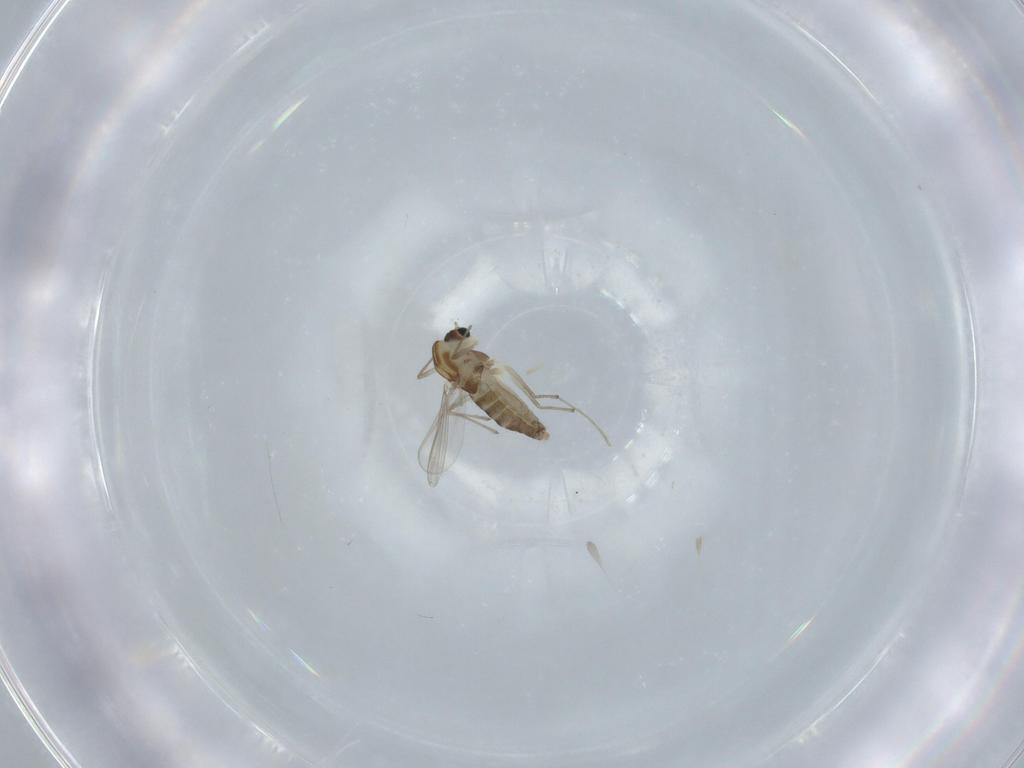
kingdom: Animalia
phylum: Arthropoda
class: Insecta
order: Diptera
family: Chironomidae
